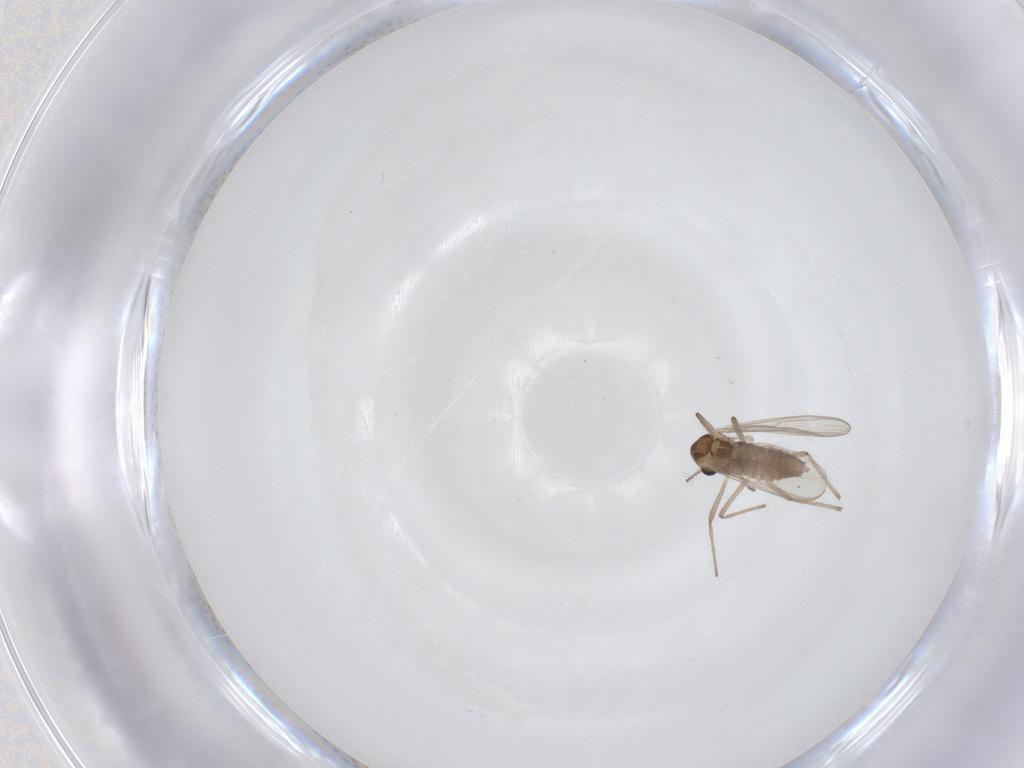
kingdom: Animalia
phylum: Arthropoda
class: Insecta
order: Diptera
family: Chironomidae
